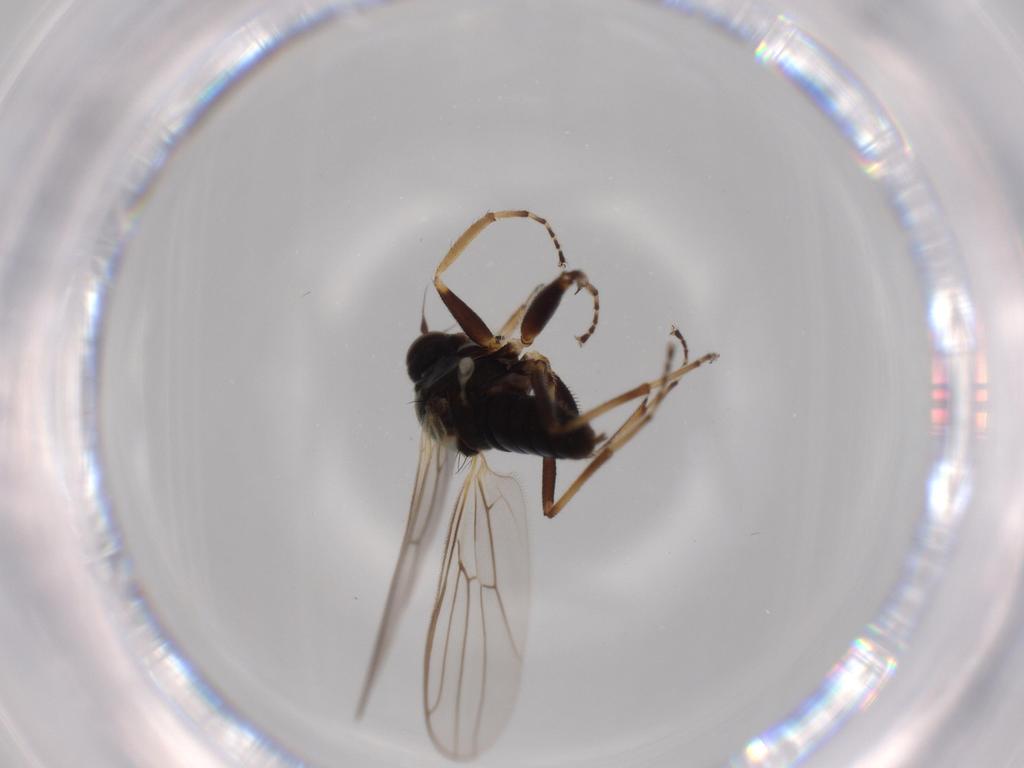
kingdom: Animalia
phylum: Arthropoda
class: Insecta
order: Diptera
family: Hybotidae
